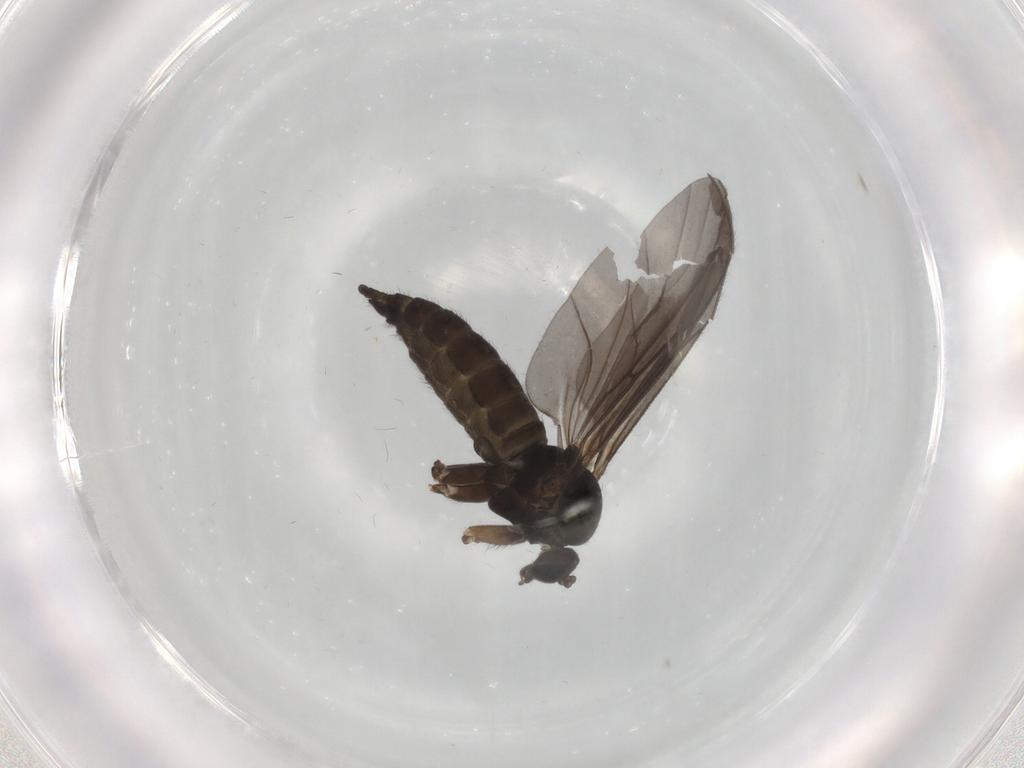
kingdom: Animalia
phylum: Arthropoda
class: Insecta
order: Diptera
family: Sciaridae
